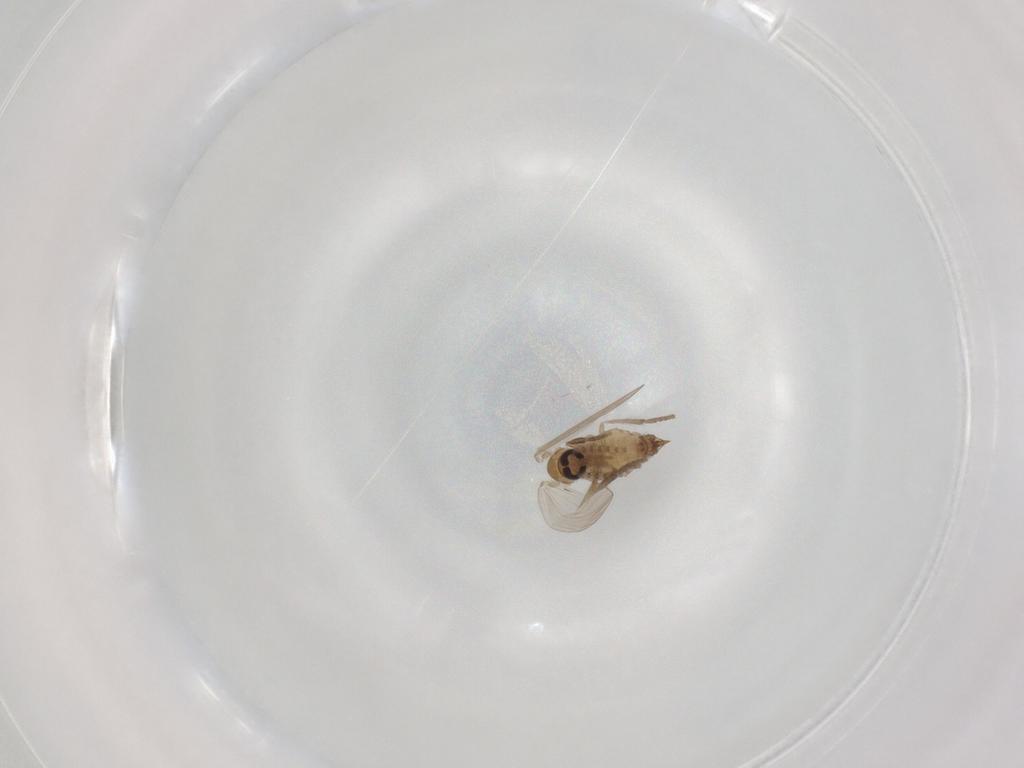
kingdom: Animalia
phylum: Arthropoda
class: Insecta
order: Diptera
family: Psychodidae
